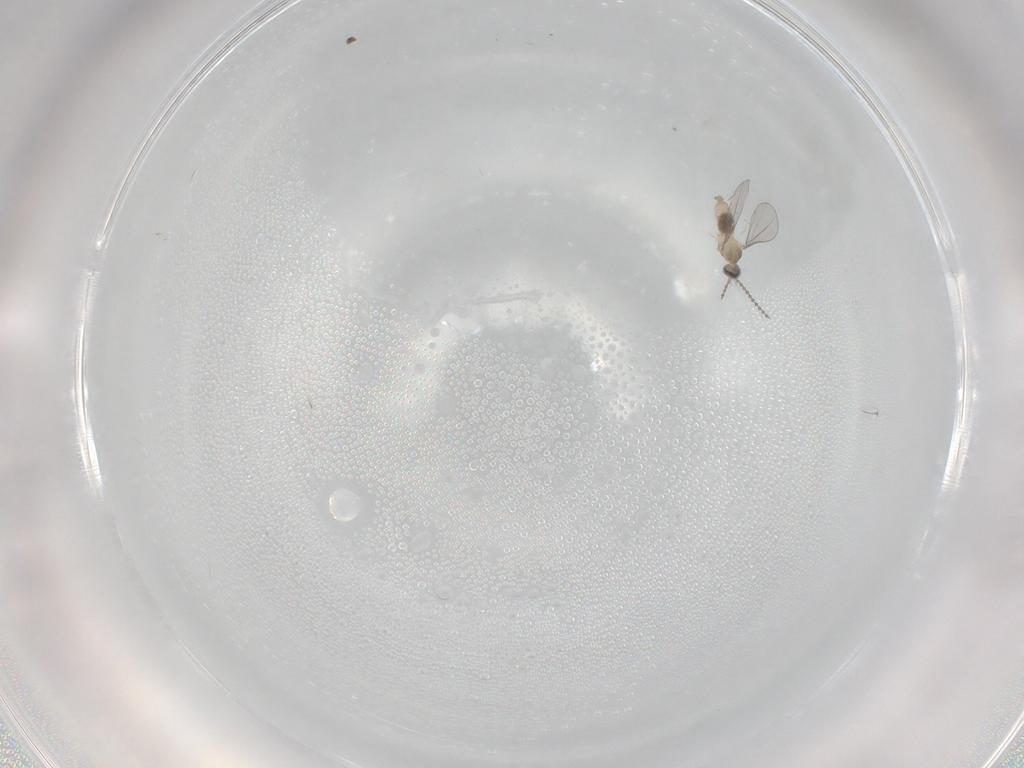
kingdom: Animalia
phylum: Arthropoda
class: Insecta
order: Diptera
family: Cecidomyiidae
